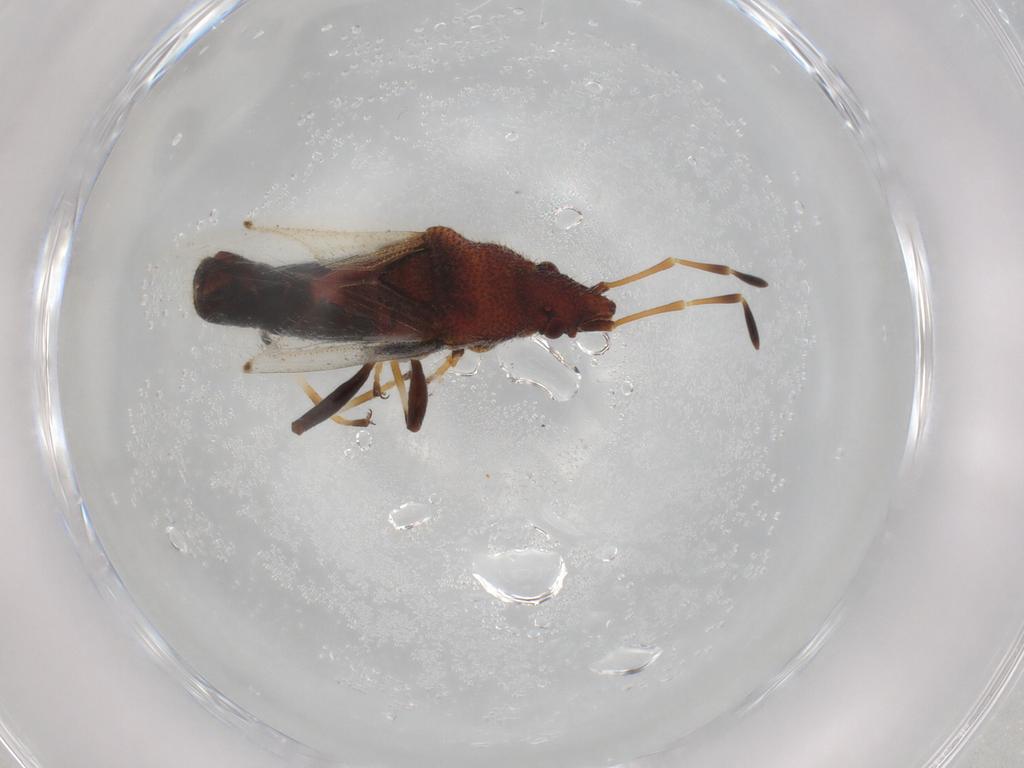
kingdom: Animalia
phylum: Arthropoda
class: Insecta
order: Hemiptera
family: Oxycarenidae
